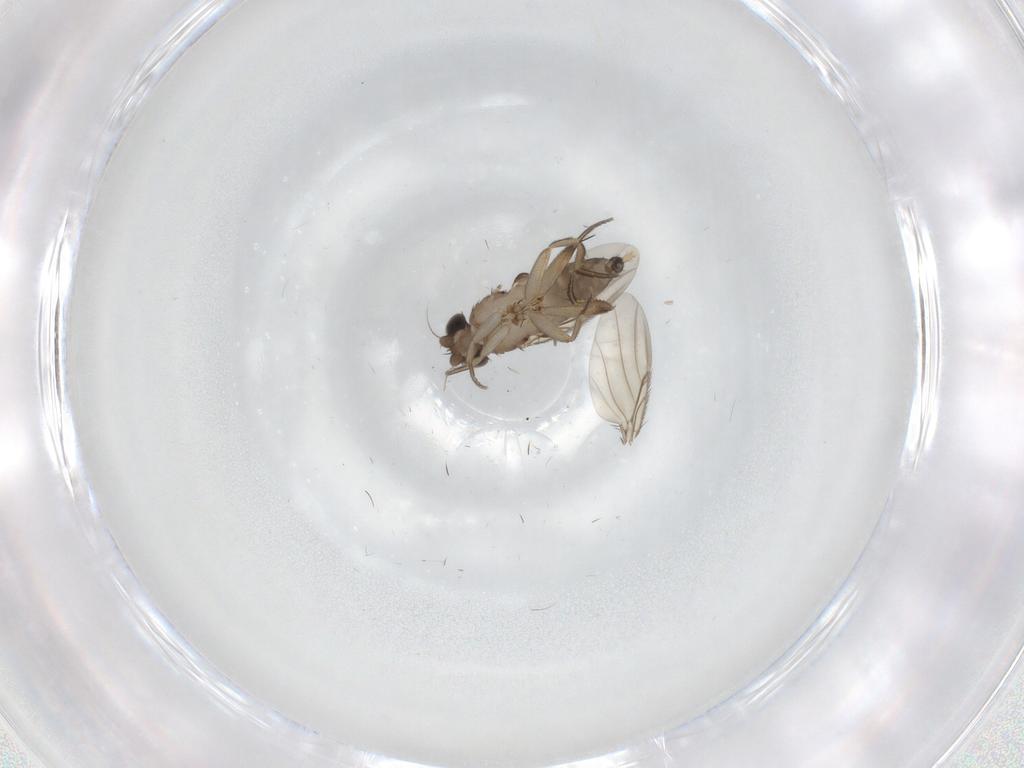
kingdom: Animalia
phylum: Arthropoda
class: Insecta
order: Diptera
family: Phoridae
